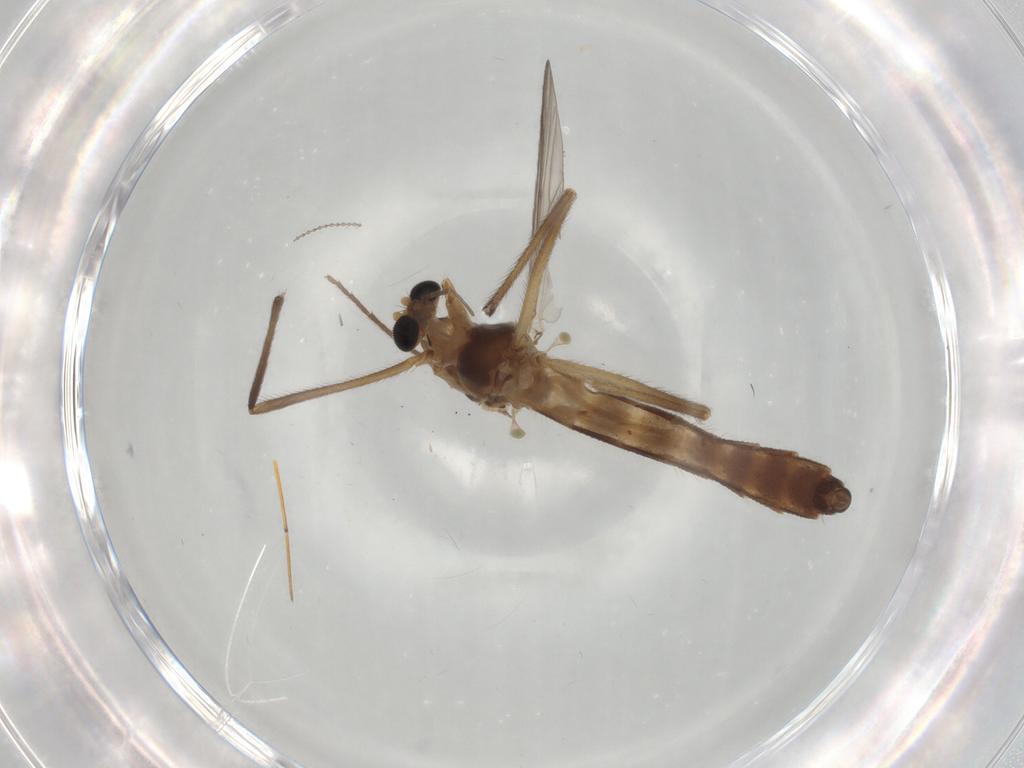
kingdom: Animalia
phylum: Arthropoda
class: Insecta
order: Diptera
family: Chironomidae
